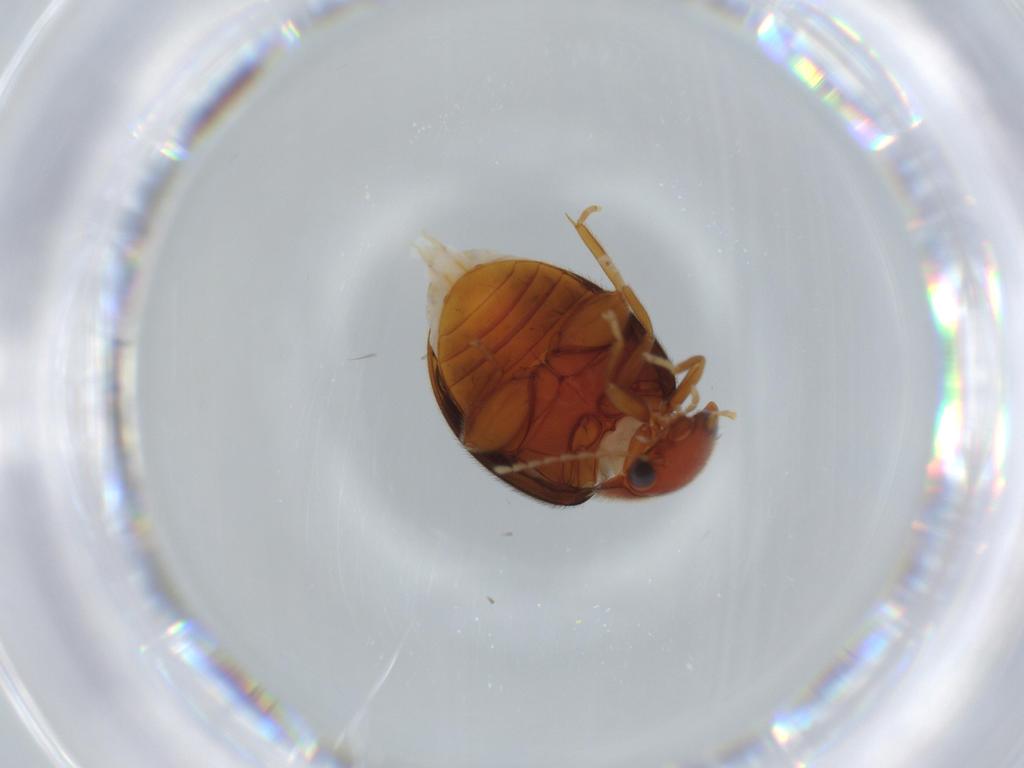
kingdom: Animalia
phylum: Arthropoda
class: Insecta
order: Coleoptera
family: Scirtidae
